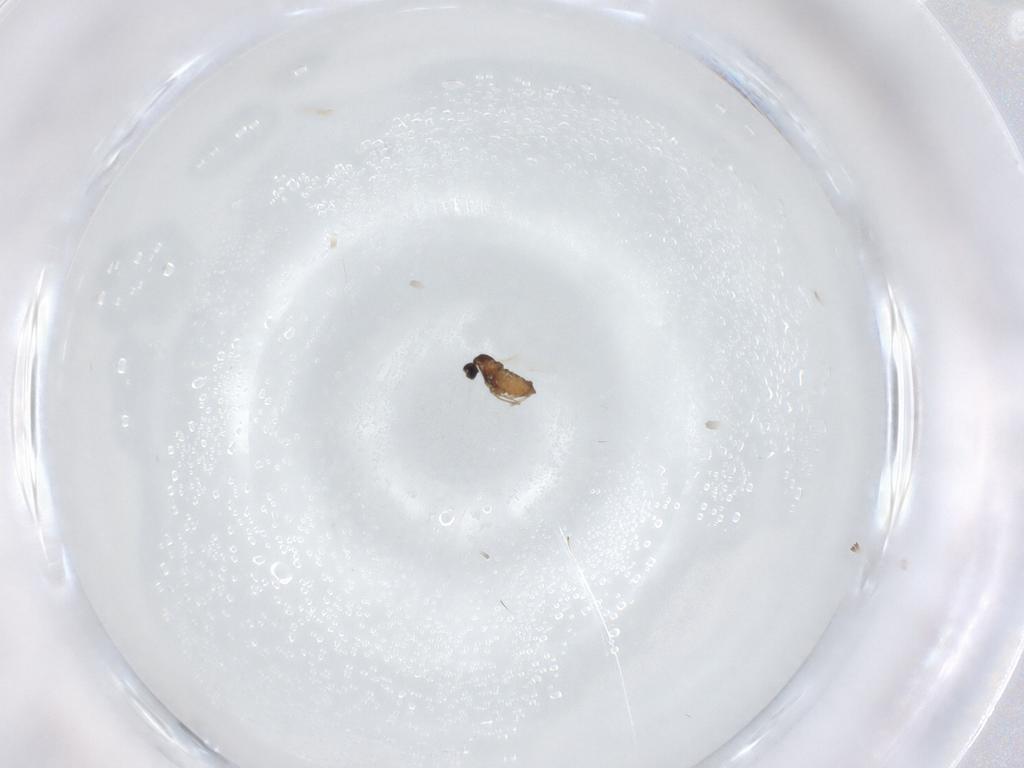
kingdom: Animalia
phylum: Arthropoda
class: Insecta
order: Diptera
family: Cecidomyiidae
